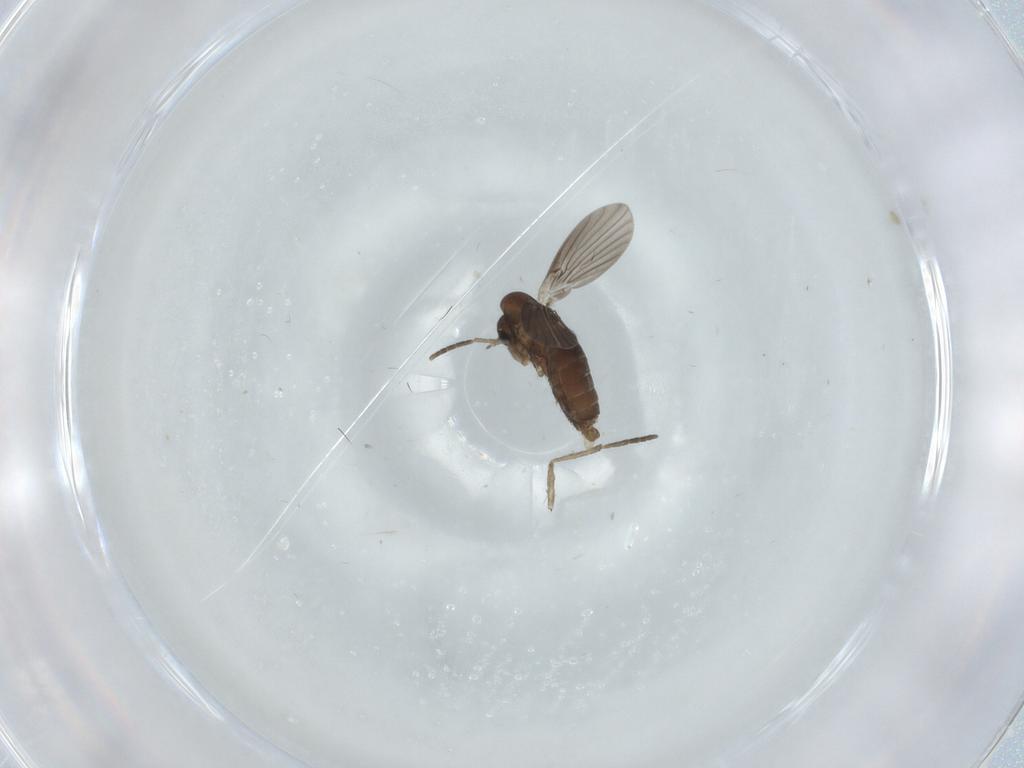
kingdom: Animalia
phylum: Arthropoda
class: Insecta
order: Diptera
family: Chironomidae
